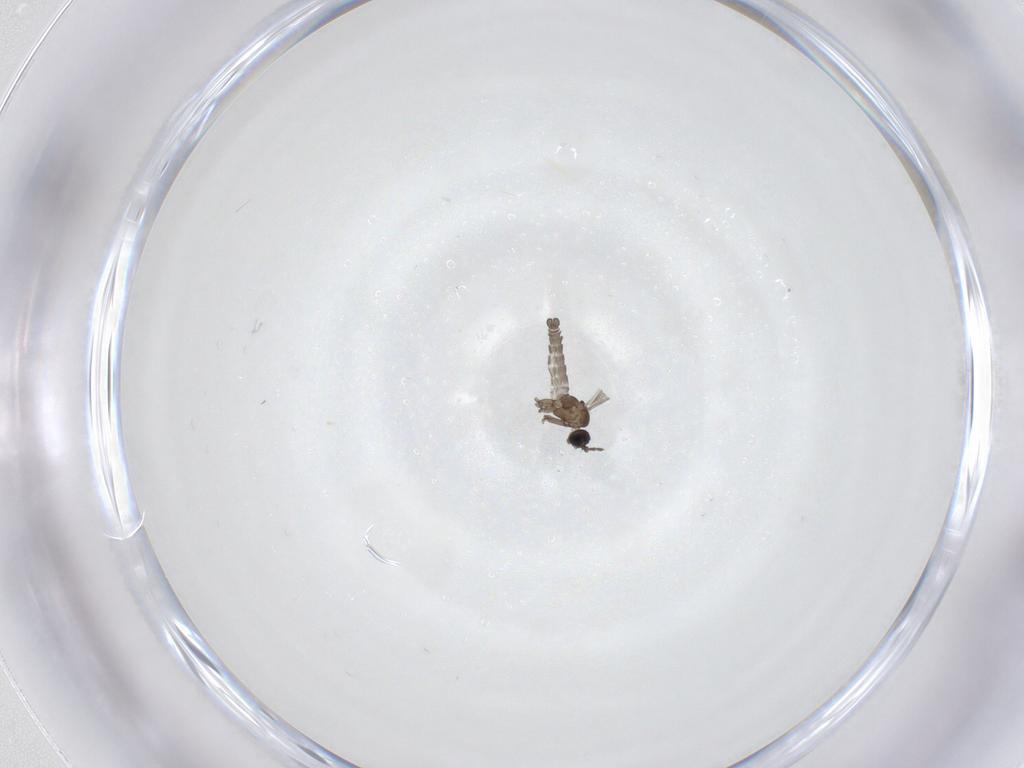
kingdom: Animalia
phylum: Arthropoda
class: Insecta
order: Diptera
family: Sciaridae
